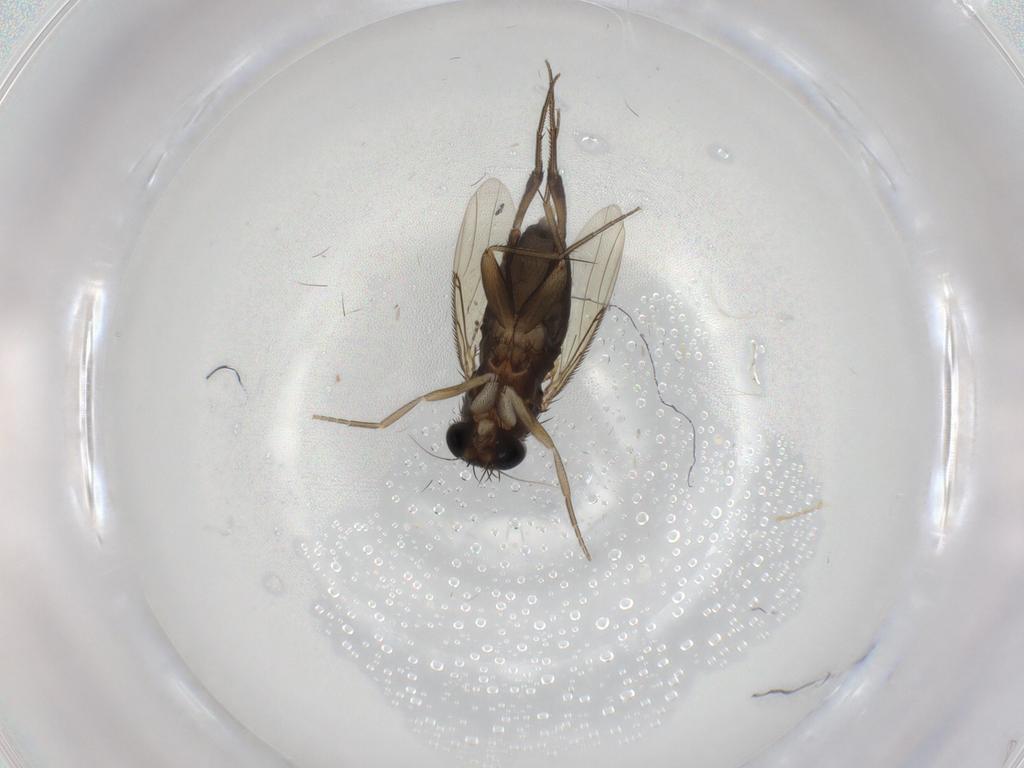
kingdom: Animalia
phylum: Arthropoda
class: Insecta
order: Diptera
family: Phoridae
